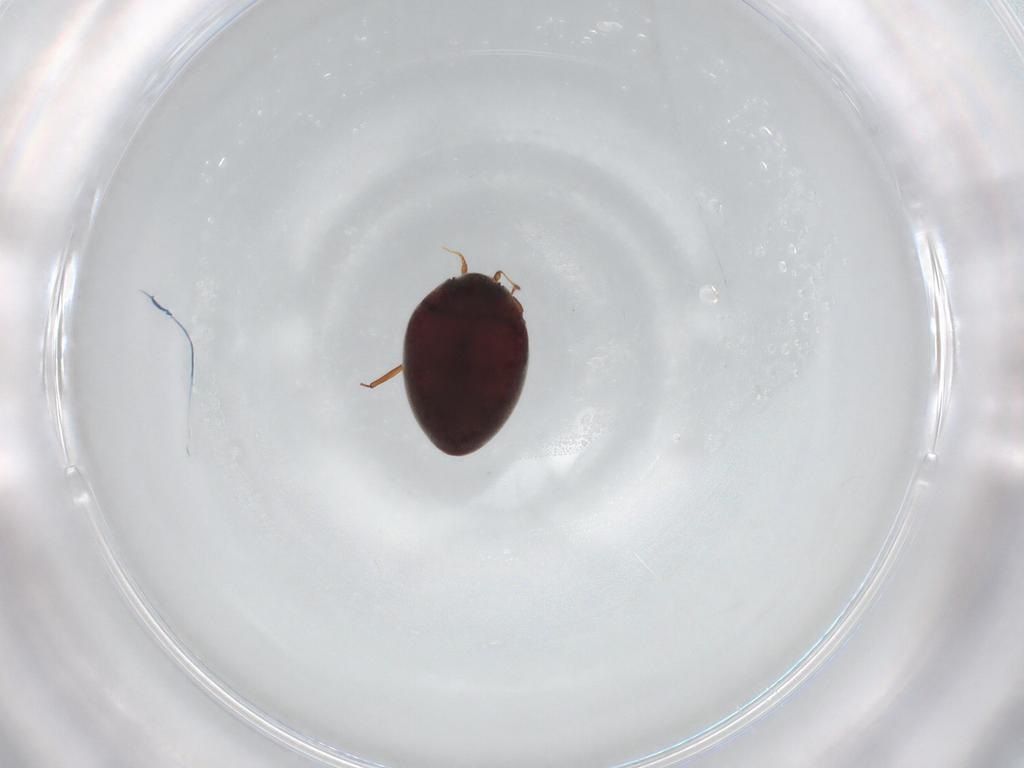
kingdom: Animalia
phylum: Arthropoda
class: Insecta
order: Coleoptera
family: Limnichidae
